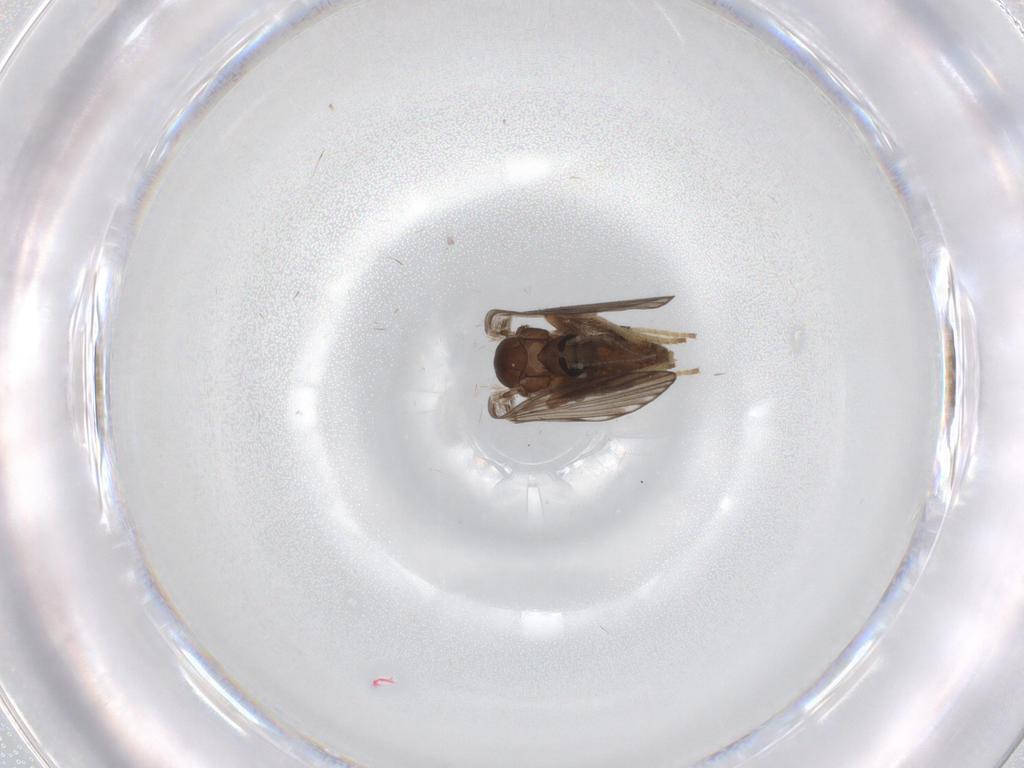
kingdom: Animalia
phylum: Arthropoda
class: Insecta
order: Diptera
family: Psychodidae
